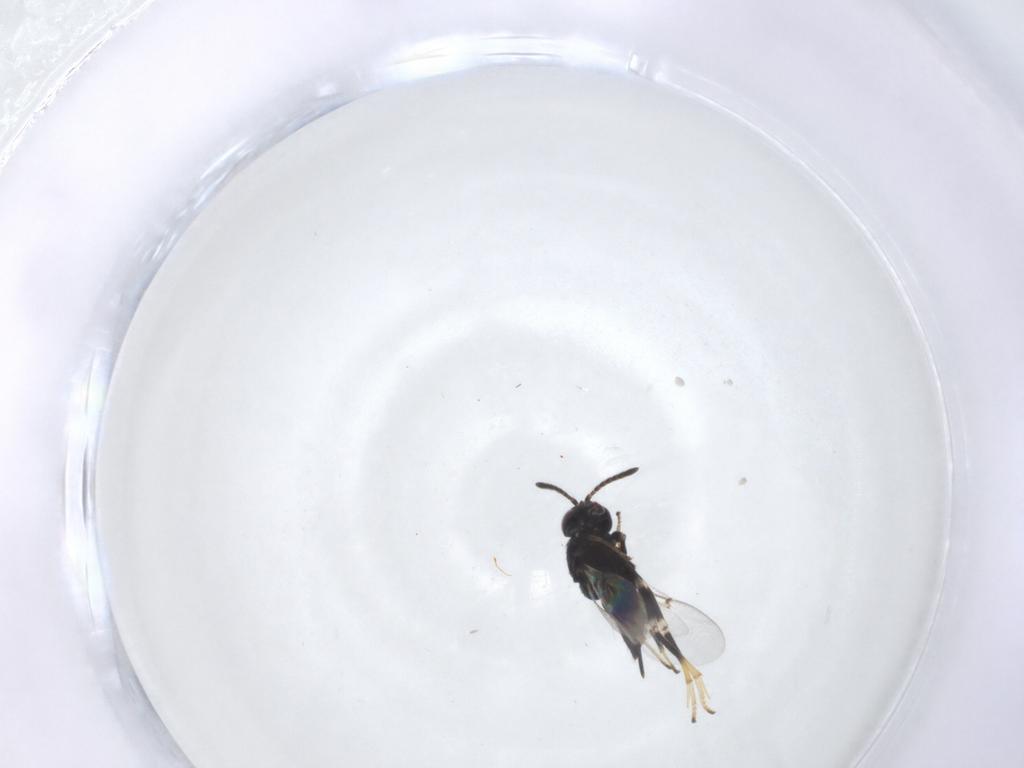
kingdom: Animalia
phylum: Arthropoda
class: Insecta
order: Hymenoptera
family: Encyrtidae
